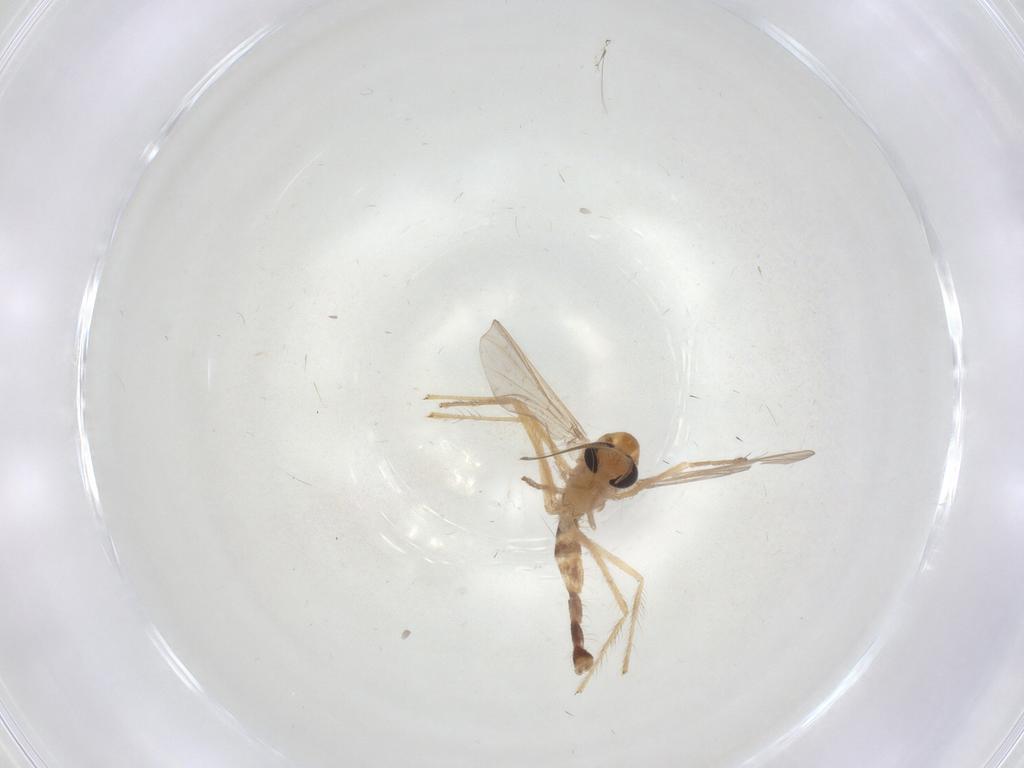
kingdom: Animalia
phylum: Arthropoda
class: Insecta
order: Diptera
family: Chironomidae
